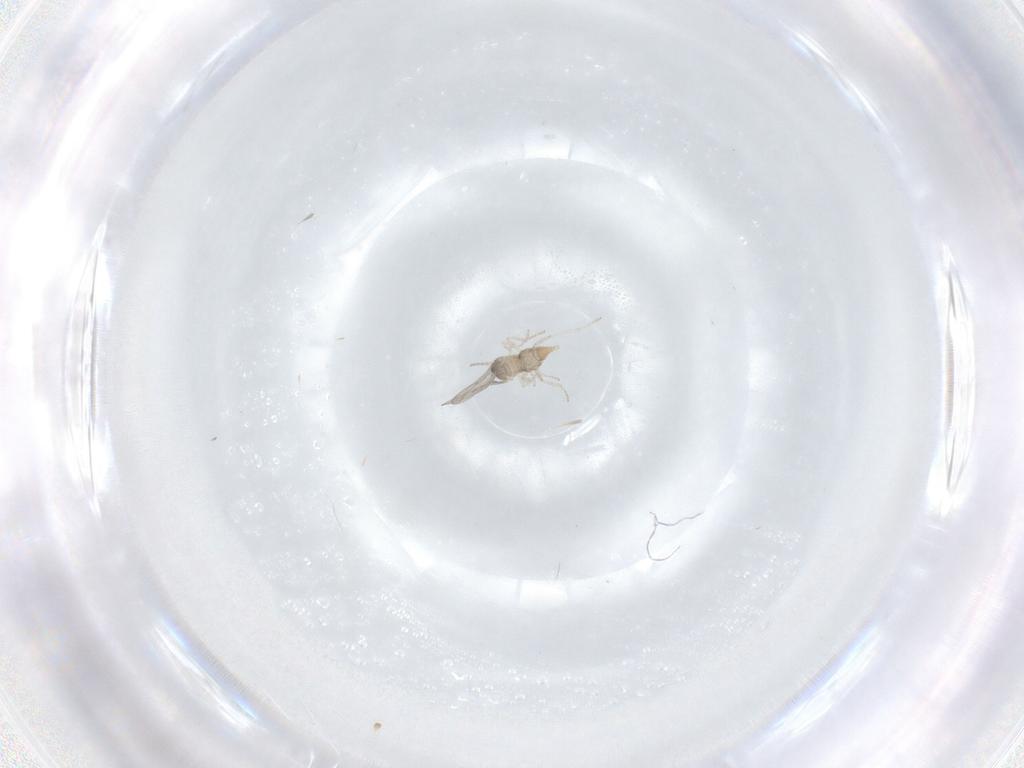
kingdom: Animalia
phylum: Arthropoda
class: Insecta
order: Diptera
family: Cecidomyiidae
